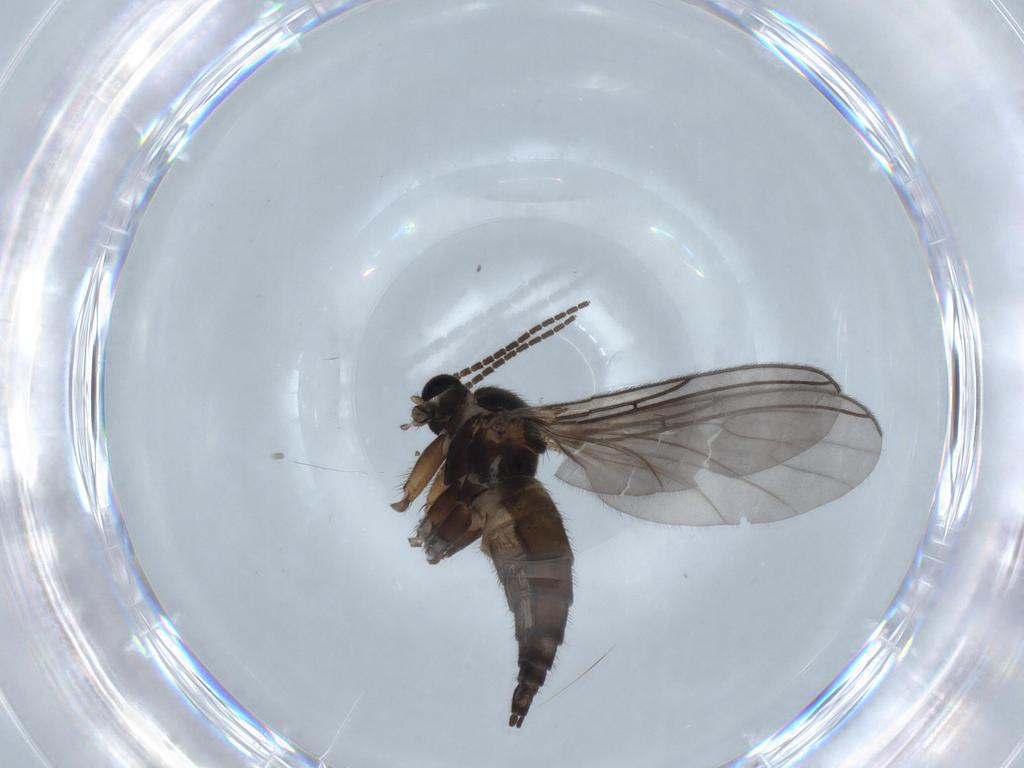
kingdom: Animalia
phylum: Arthropoda
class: Insecta
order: Diptera
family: Sciaridae
